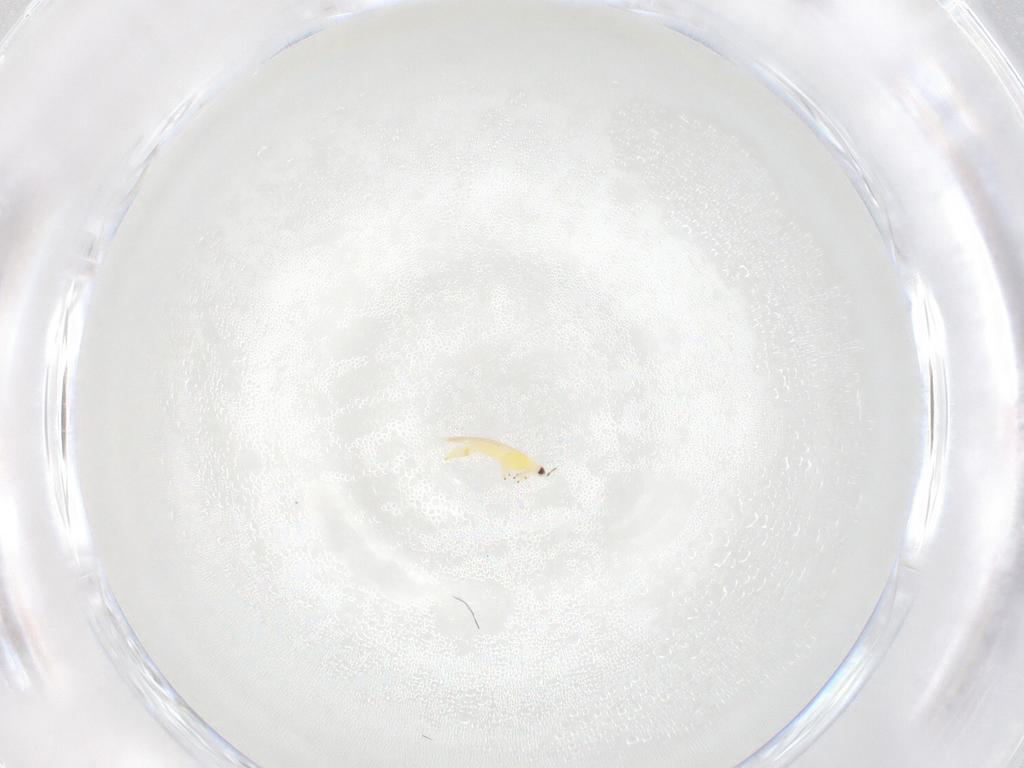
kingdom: Animalia
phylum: Arthropoda
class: Insecta
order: Thysanoptera
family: Thripidae
